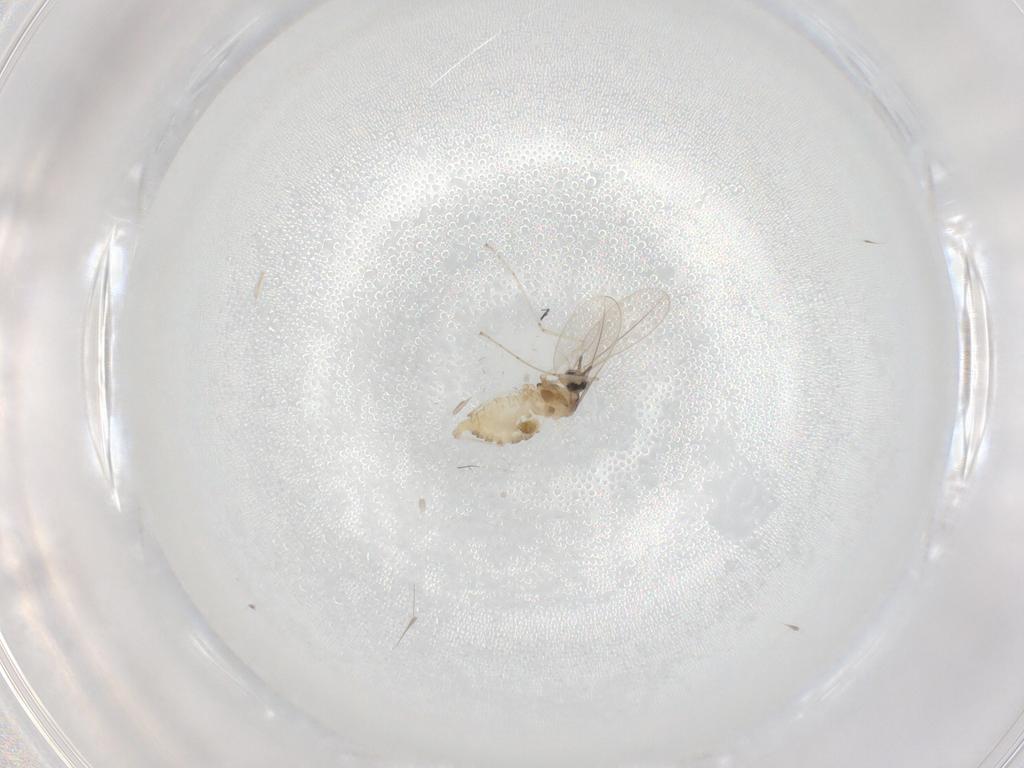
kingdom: Animalia
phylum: Arthropoda
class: Insecta
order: Diptera
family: Cecidomyiidae
